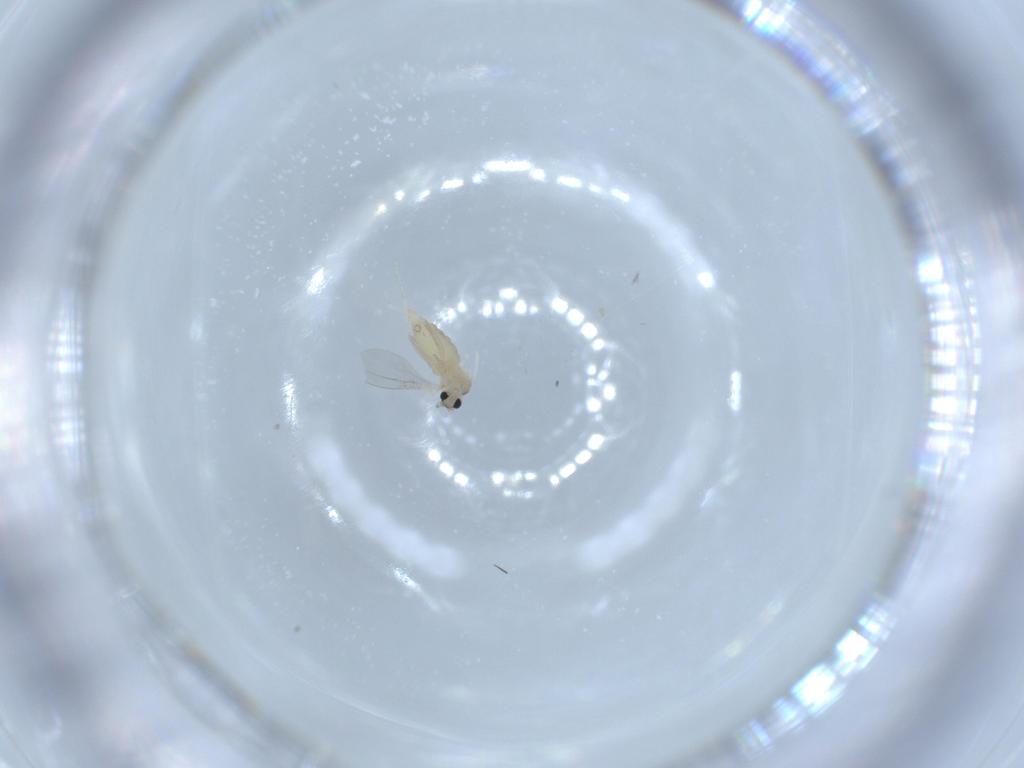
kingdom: Animalia
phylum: Arthropoda
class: Insecta
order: Diptera
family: Cecidomyiidae
